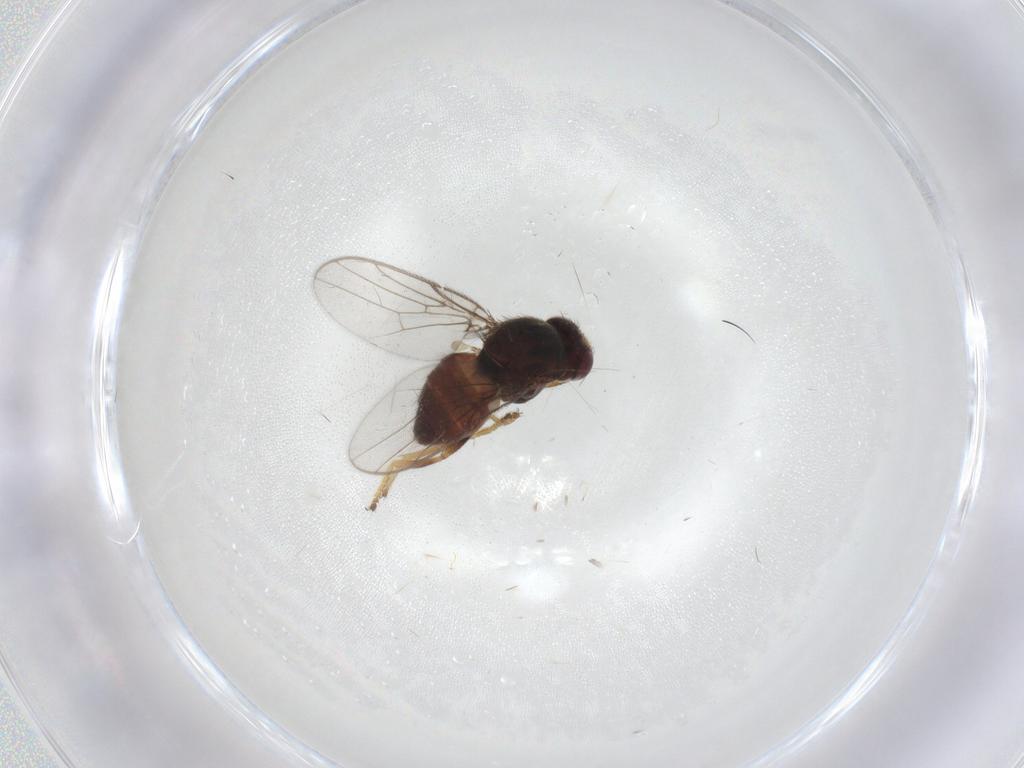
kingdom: Animalia
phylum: Arthropoda
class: Insecta
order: Diptera
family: Chloropidae
